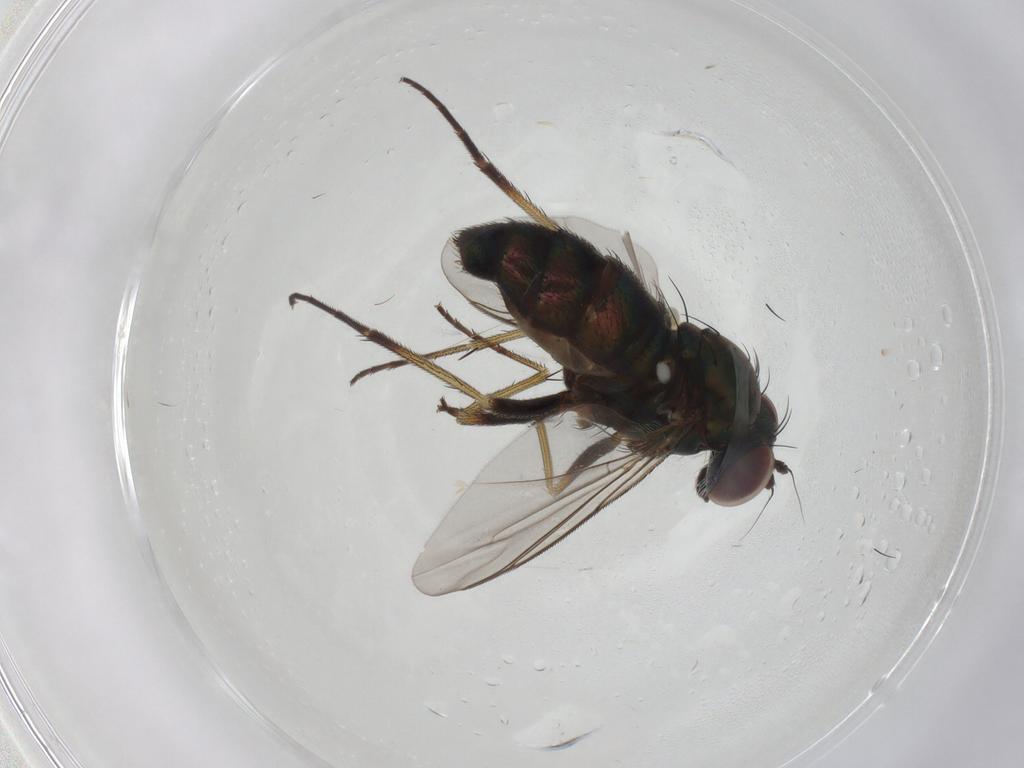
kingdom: Animalia
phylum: Arthropoda
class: Insecta
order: Diptera
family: Dolichopodidae
